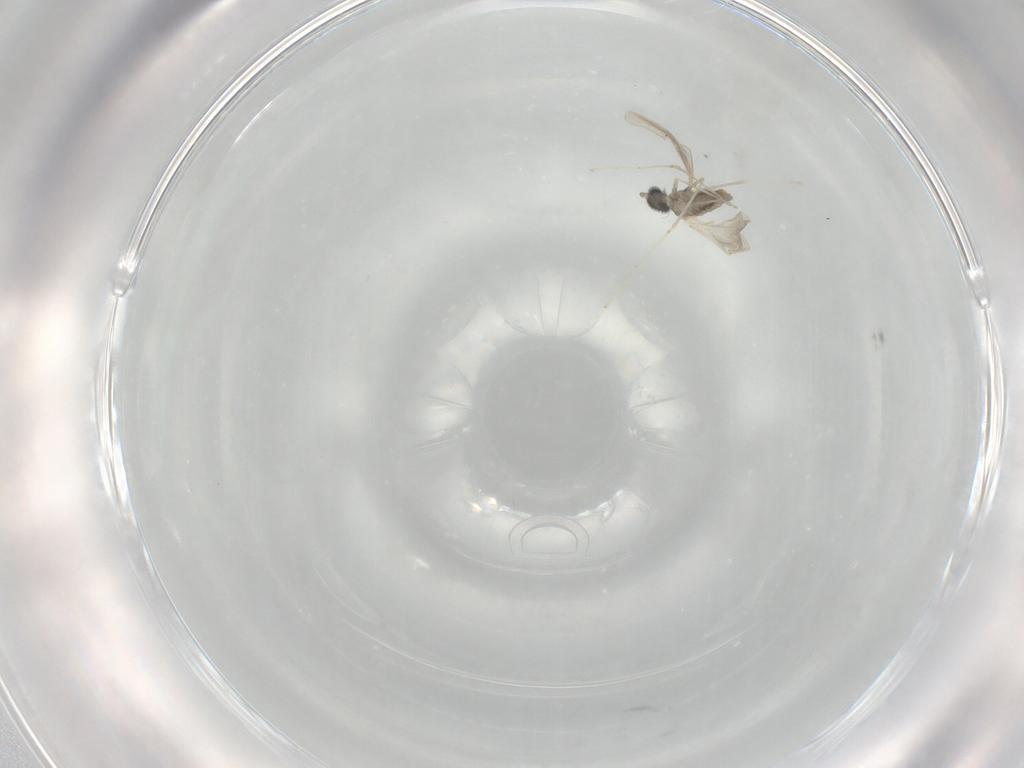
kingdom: Animalia
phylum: Arthropoda
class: Insecta
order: Diptera
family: Cecidomyiidae
